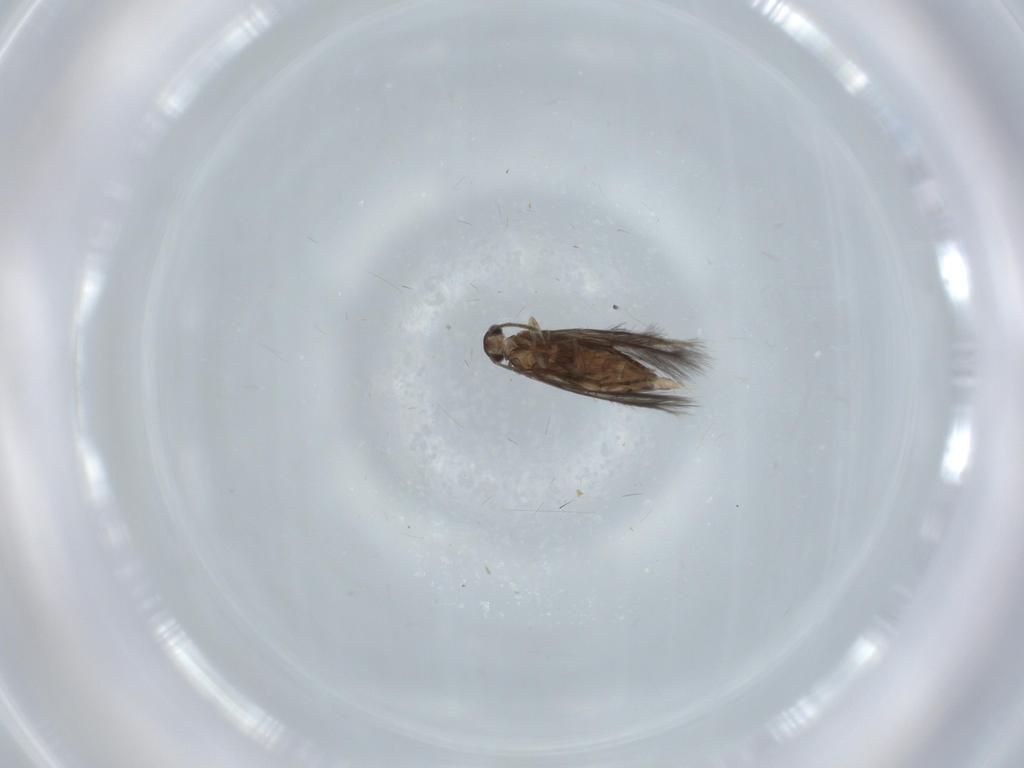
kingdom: Animalia
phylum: Arthropoda
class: Insecta
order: Trichoptera
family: Hydroptilidae
